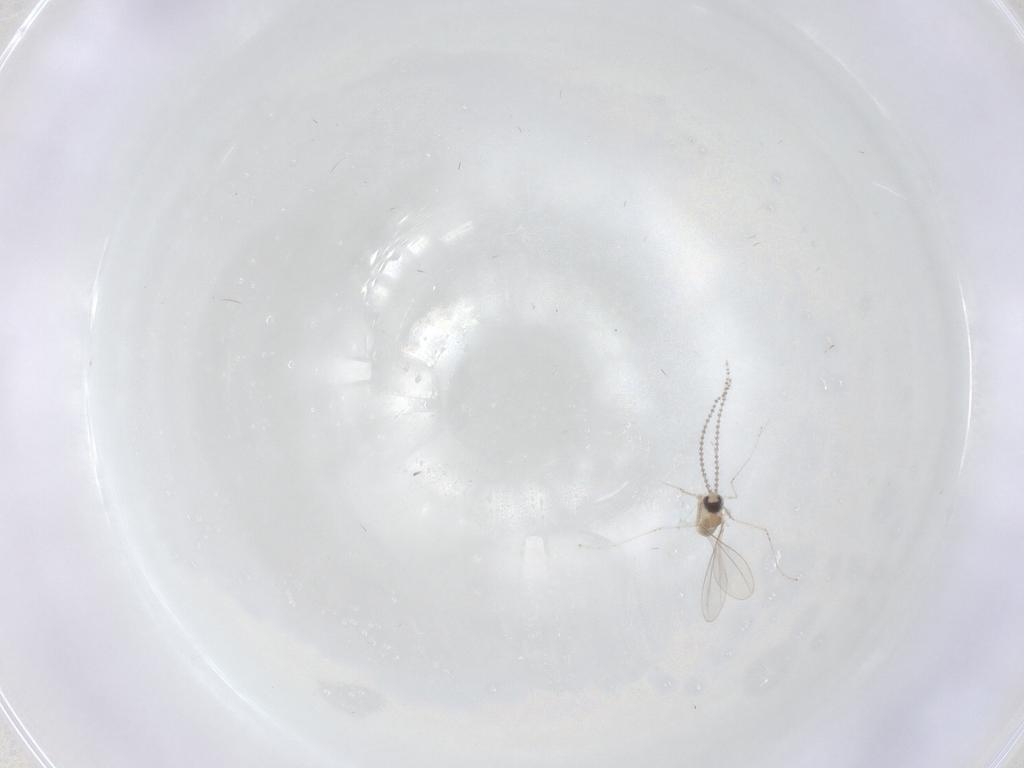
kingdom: Animalia
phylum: Arthropoda
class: Insecta
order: Diptera
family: Cecidomyiidae
